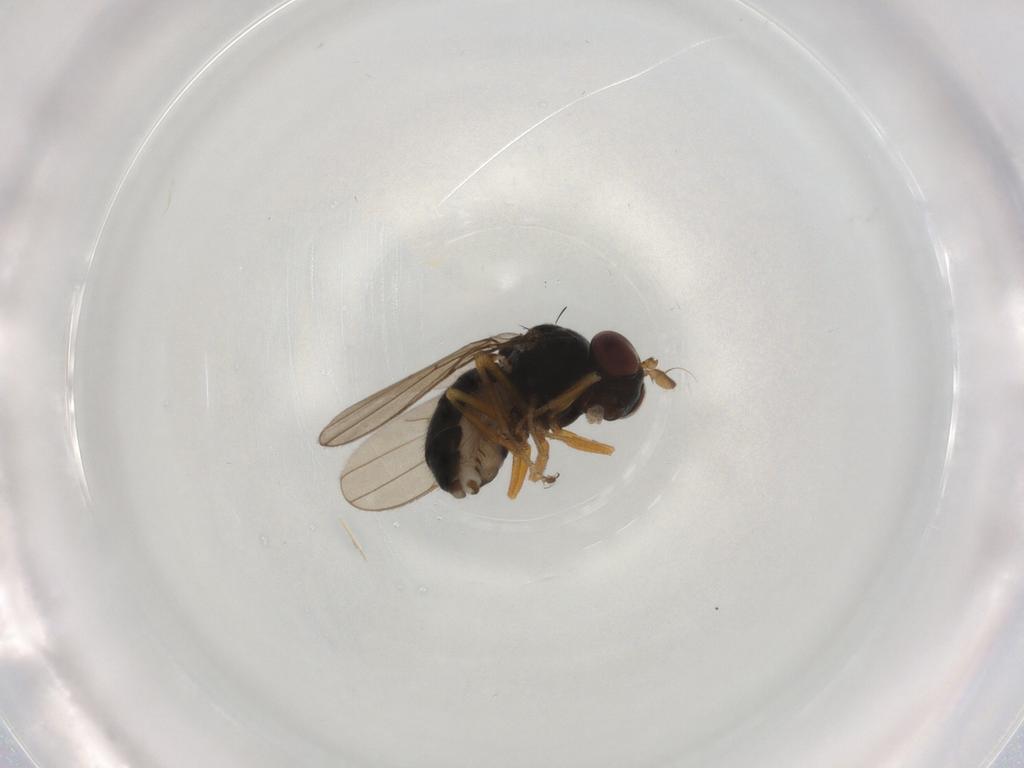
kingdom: Animalia
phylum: Arthropoda
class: Insecta
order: Diptera
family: Ephydridae
